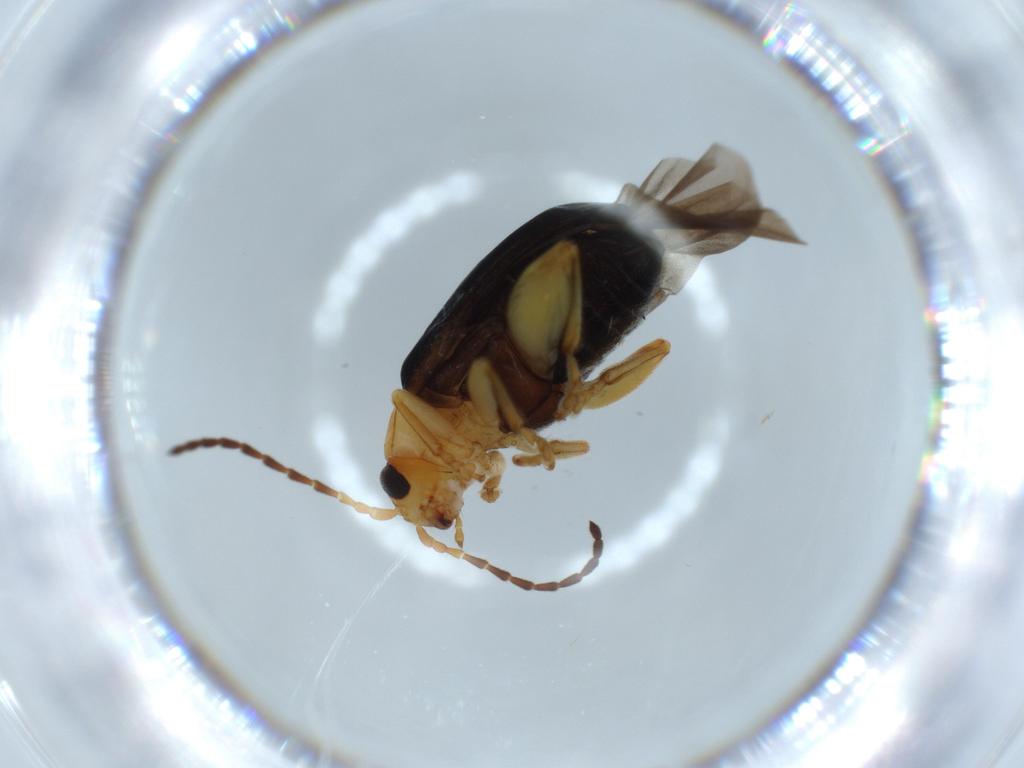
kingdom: Animalia
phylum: Arthropoda
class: Insecta
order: Coleoptera
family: Chrysomelidae
